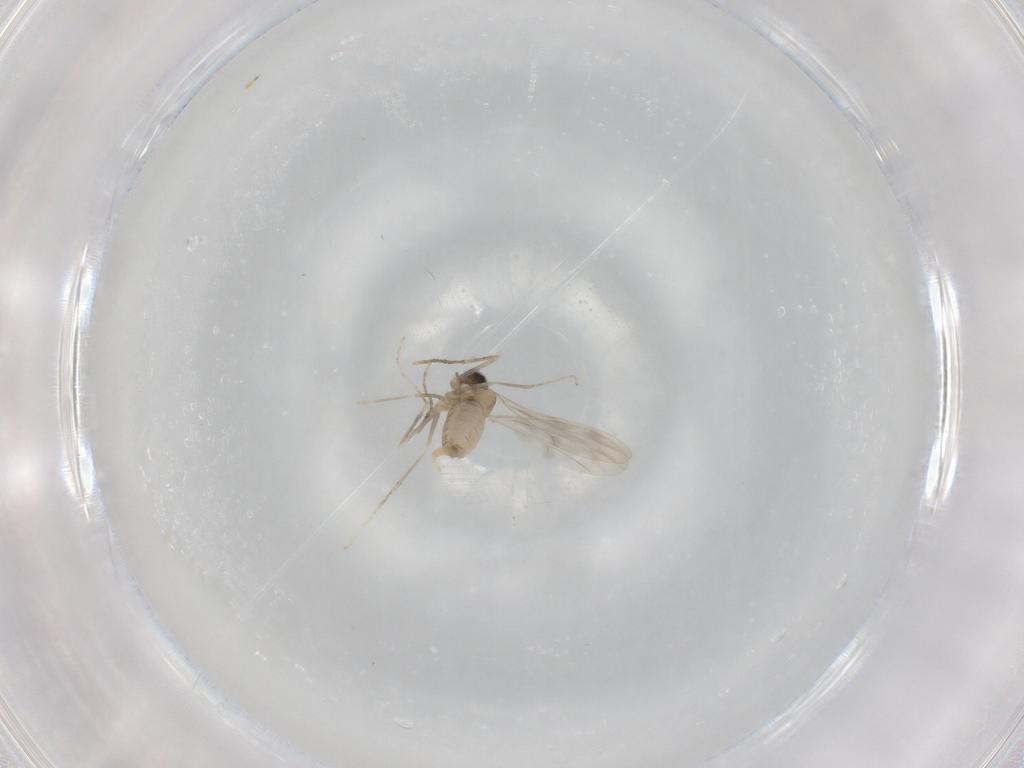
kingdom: Animalia
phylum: Arthropoda
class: Insecta
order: Diptera
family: Cecidomyiidae
